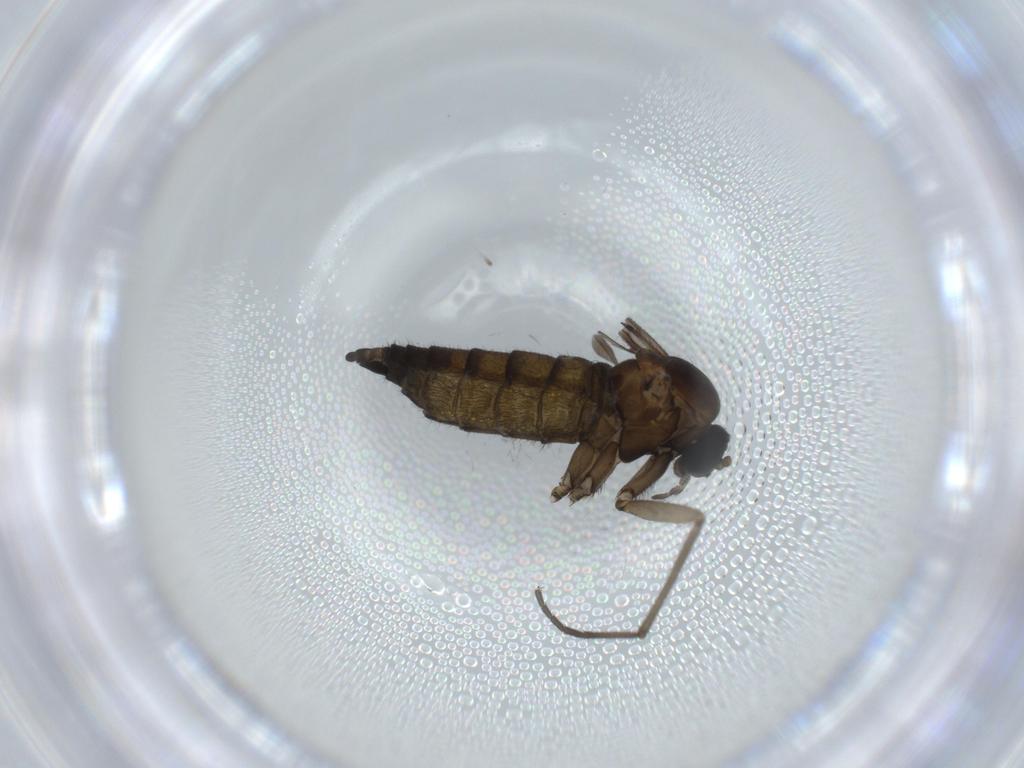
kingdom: Animalia
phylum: Arthropoda
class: Insecta
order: Diptera
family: Sciaridae
